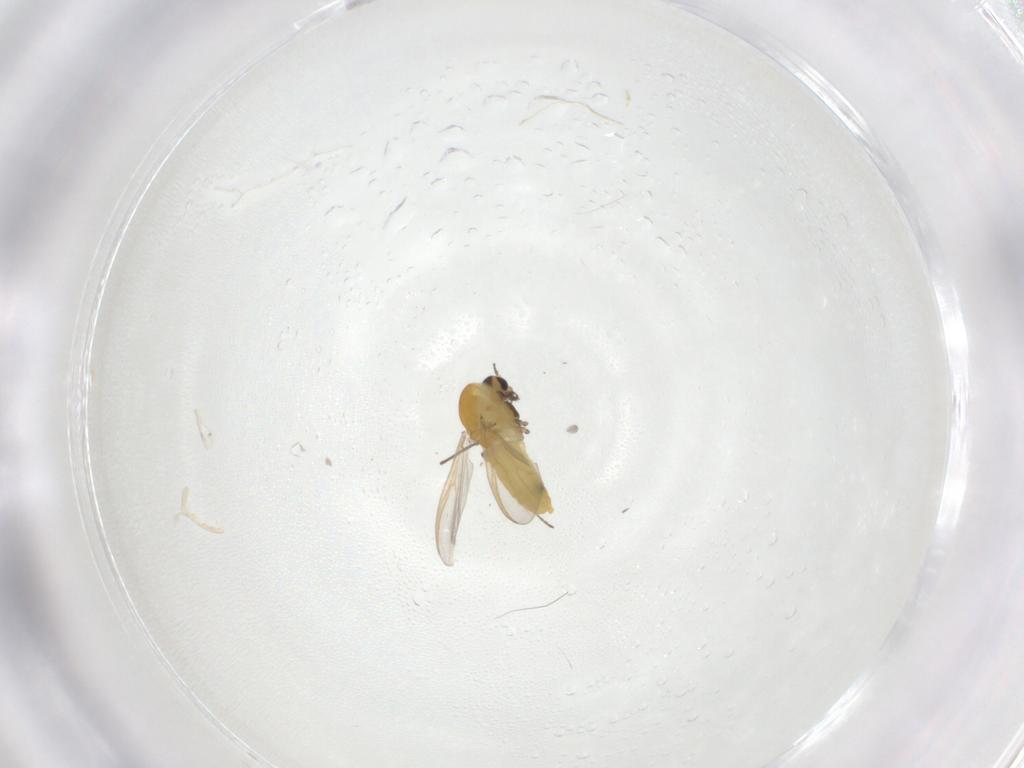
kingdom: Animalia
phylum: Arthropoda
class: Insecta
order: Diptera
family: Chironomidae
